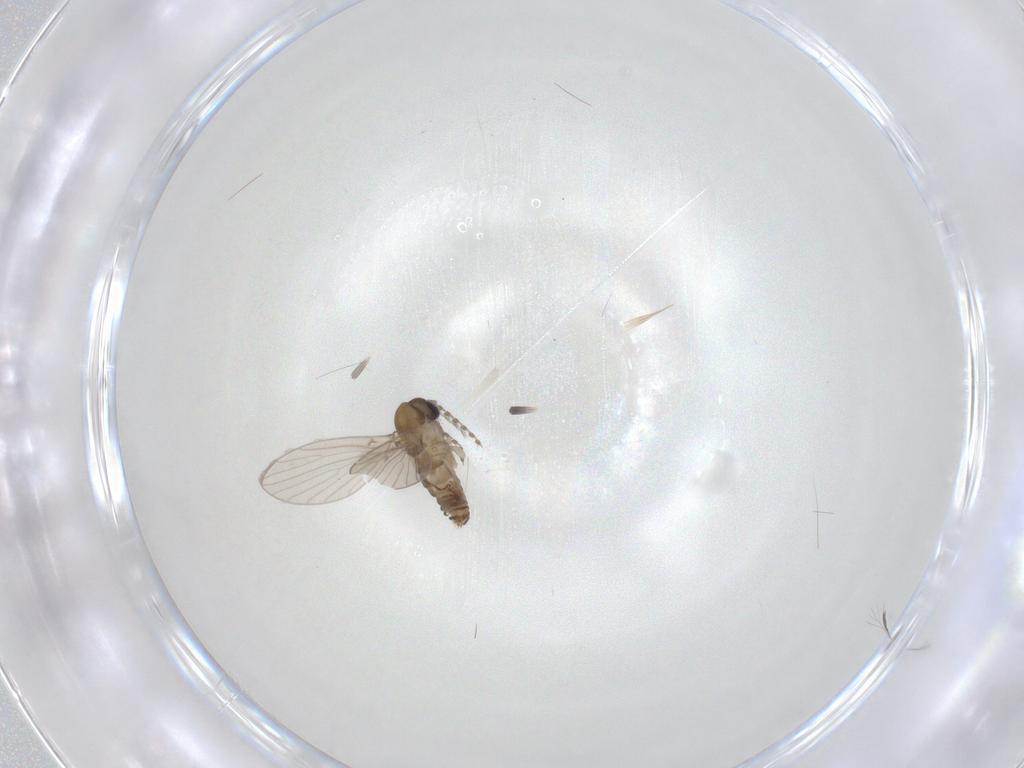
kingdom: Animalia
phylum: Arthropoda
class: Insecta
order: Diptera
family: Psychodidae
